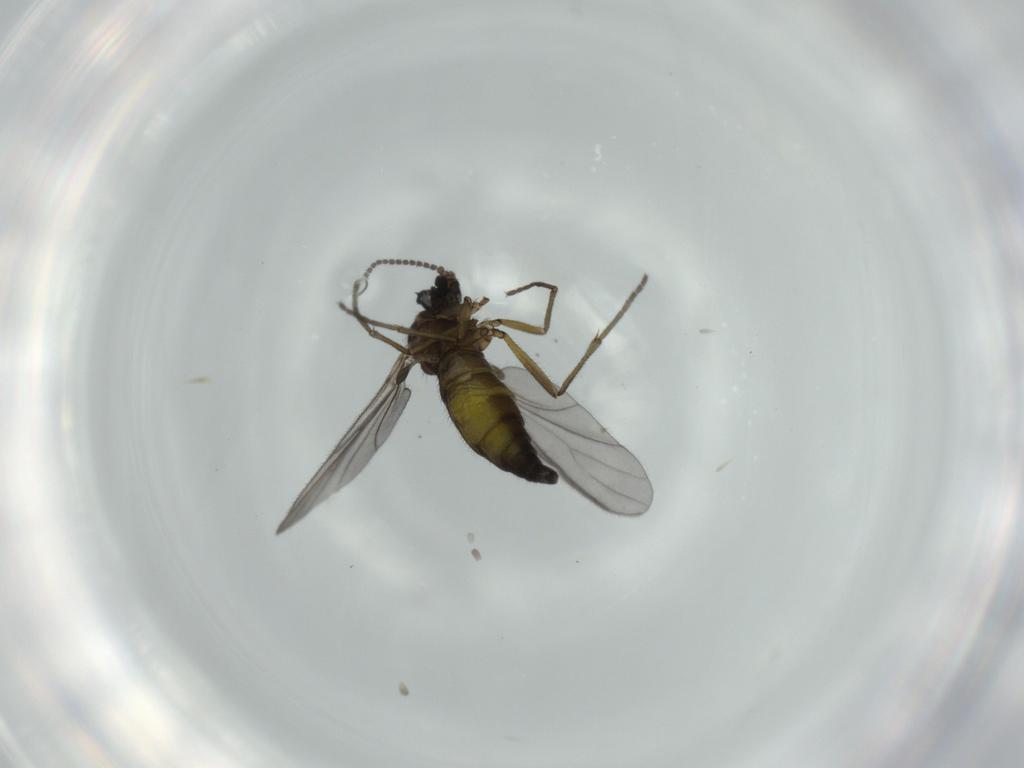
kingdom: Animalia
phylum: Arthropoda
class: Insecta
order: Diptera
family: Sciaridae
